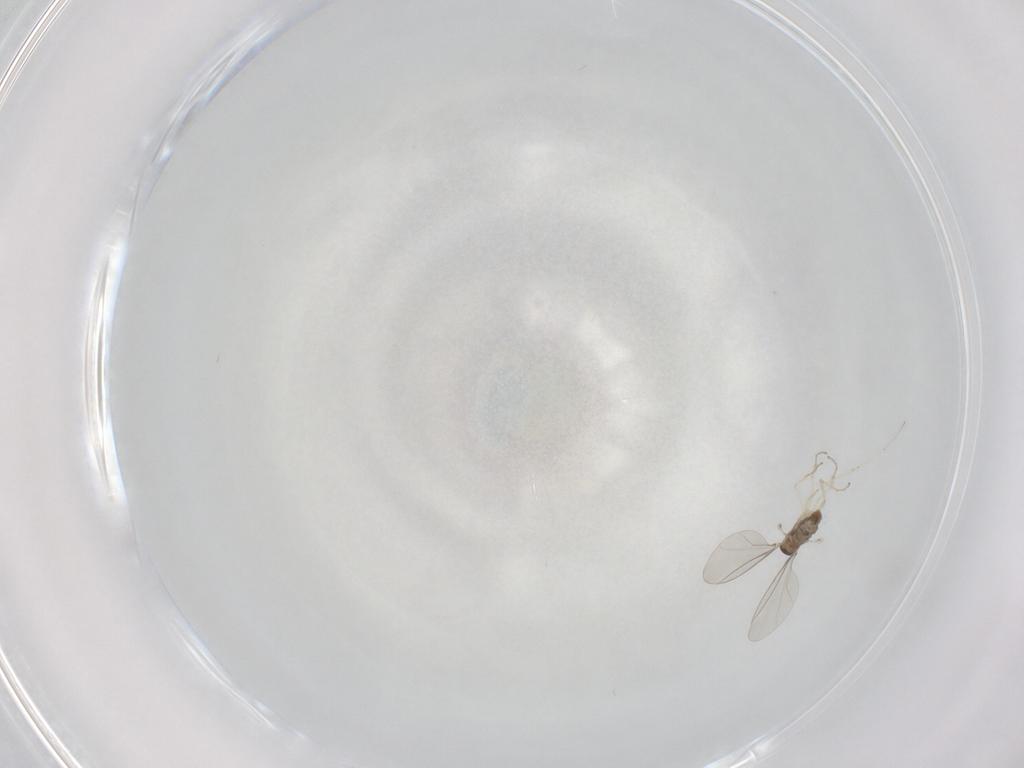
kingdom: Animalia
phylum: Arthropoda
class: Insecta
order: Diptera
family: Cecidomyiidae
